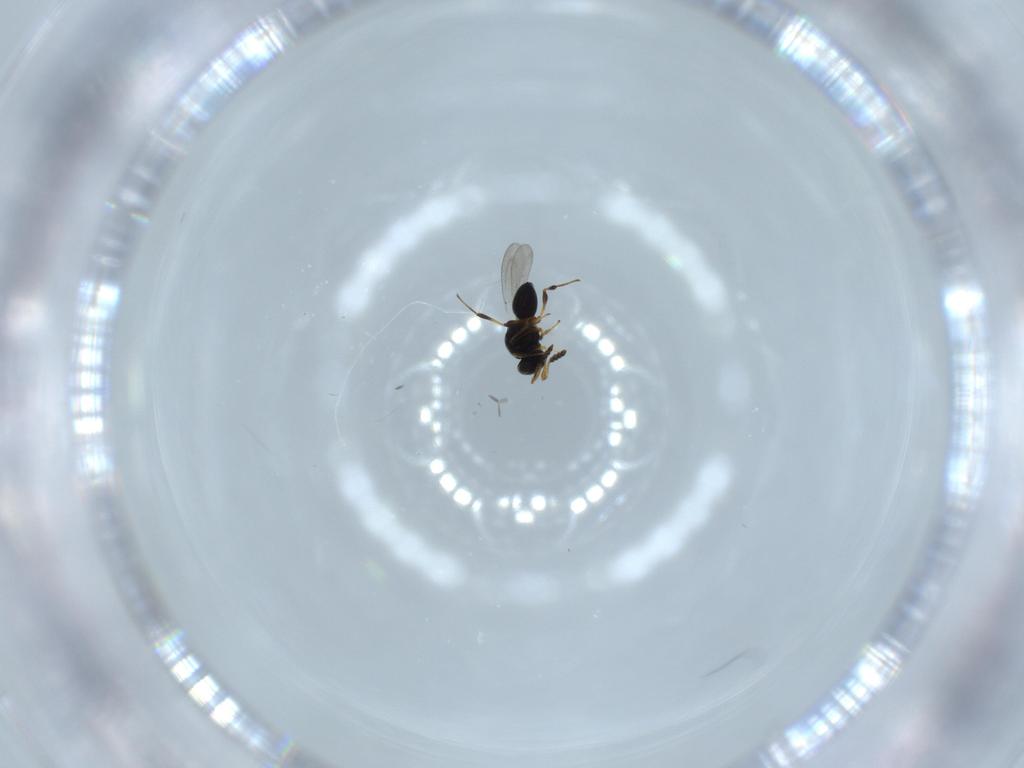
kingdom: Animalia
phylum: Arthropoda
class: Insecta
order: Hymenoptera
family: Platygastridae
